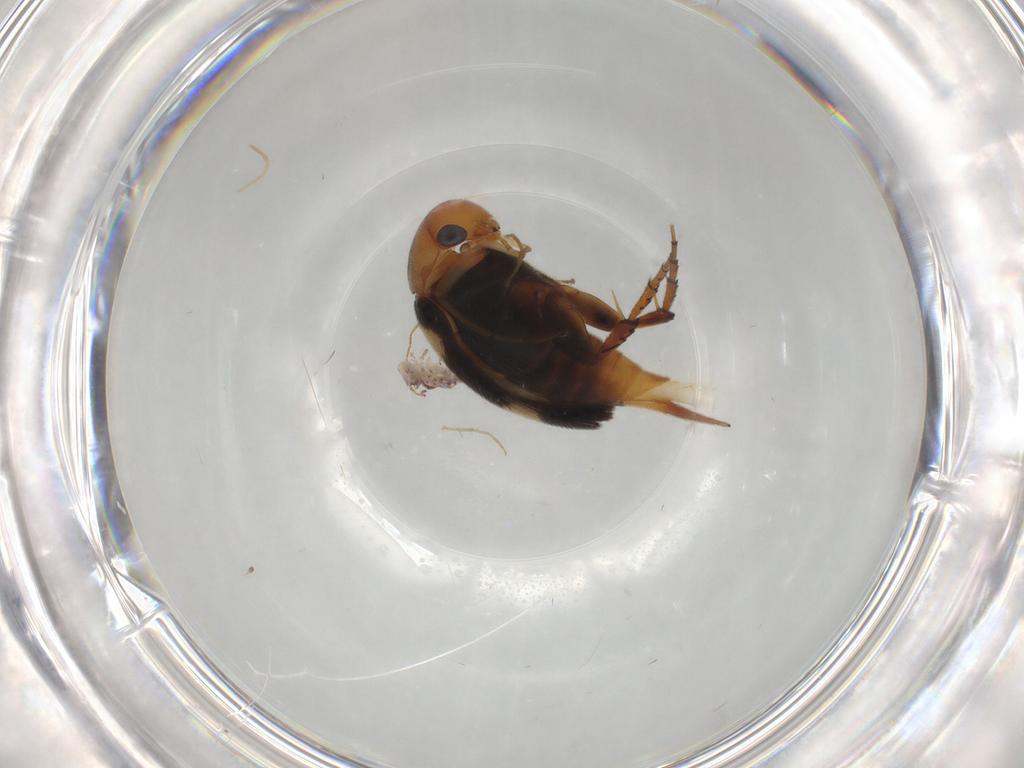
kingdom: Animalia
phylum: Arthropoda
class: Collembola
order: Symphypleona
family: Bourletiellidae
